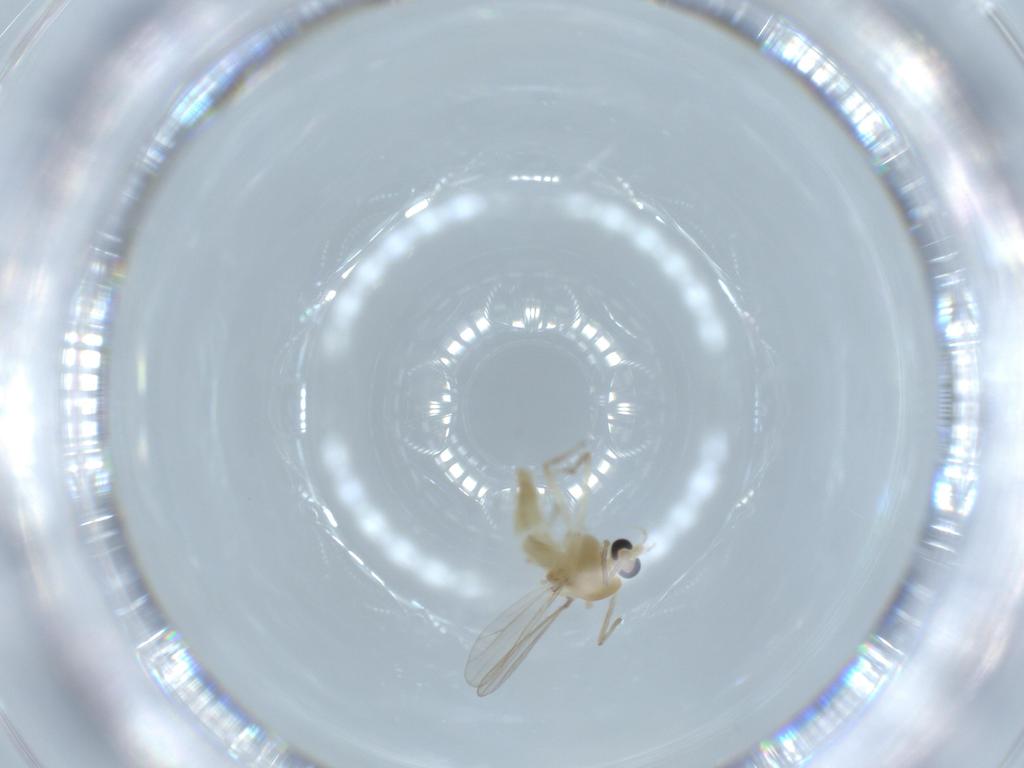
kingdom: Animalia
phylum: Arthropoda
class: Insecta
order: Diptera
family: Chironomidae
